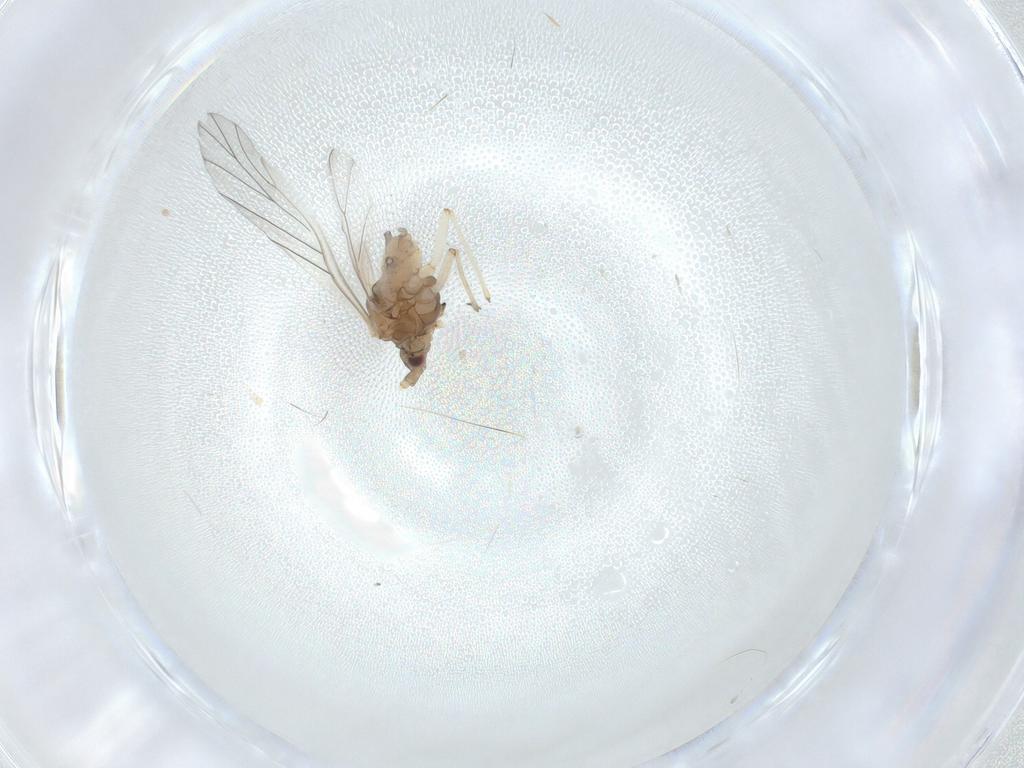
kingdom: Animalia
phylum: Arthropoda
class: Insecta
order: Hemiptera
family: Aphididae
